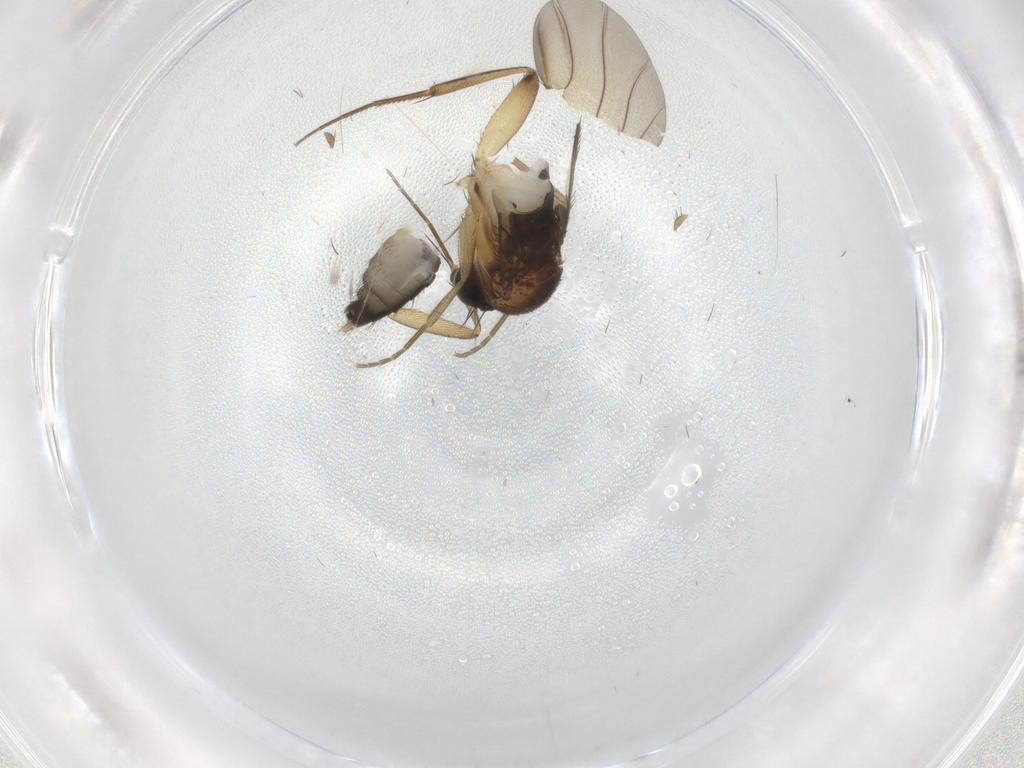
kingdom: Animalia
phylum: Arthropoda
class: Insecta
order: Diptera
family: Phoridae
